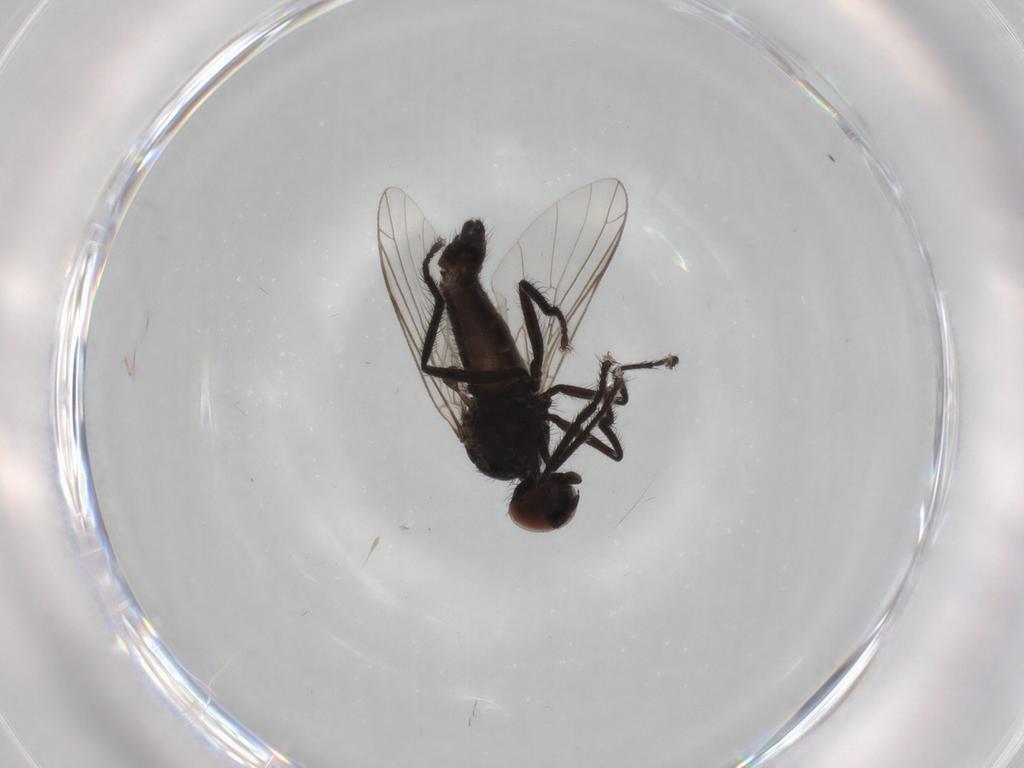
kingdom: Animalia
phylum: Arthropoda
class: Insecta
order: Diptera
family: Empididae
